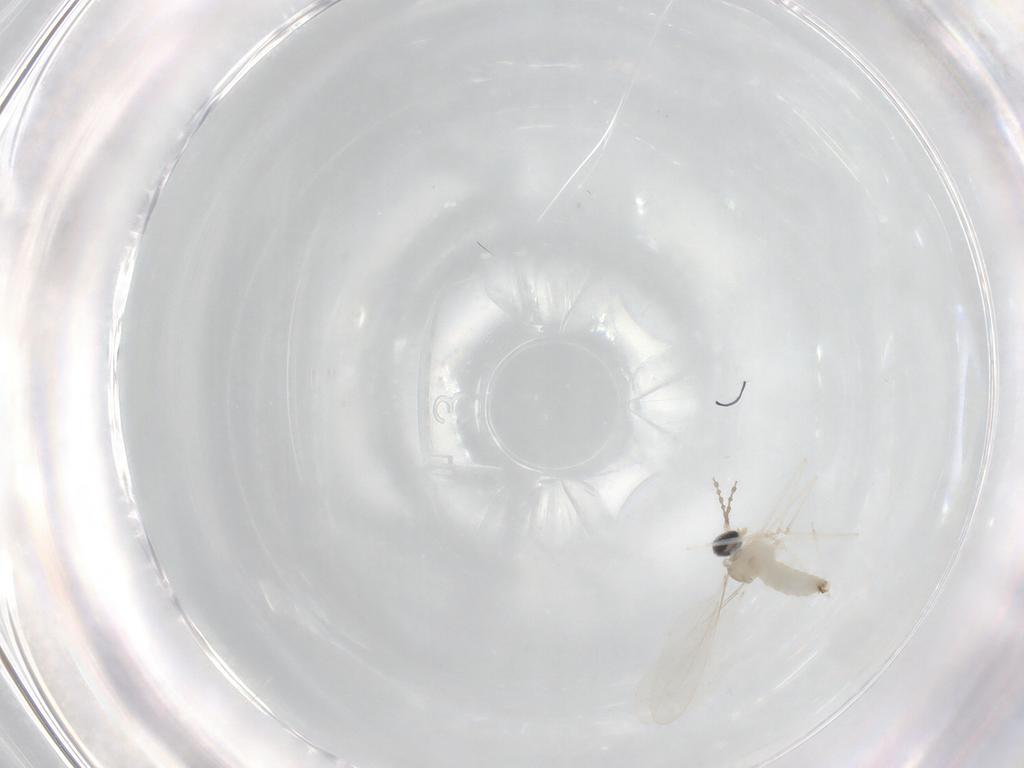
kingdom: Animalia
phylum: Arthropoda
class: Insecta
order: Diptera
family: Cecidomyiidae
